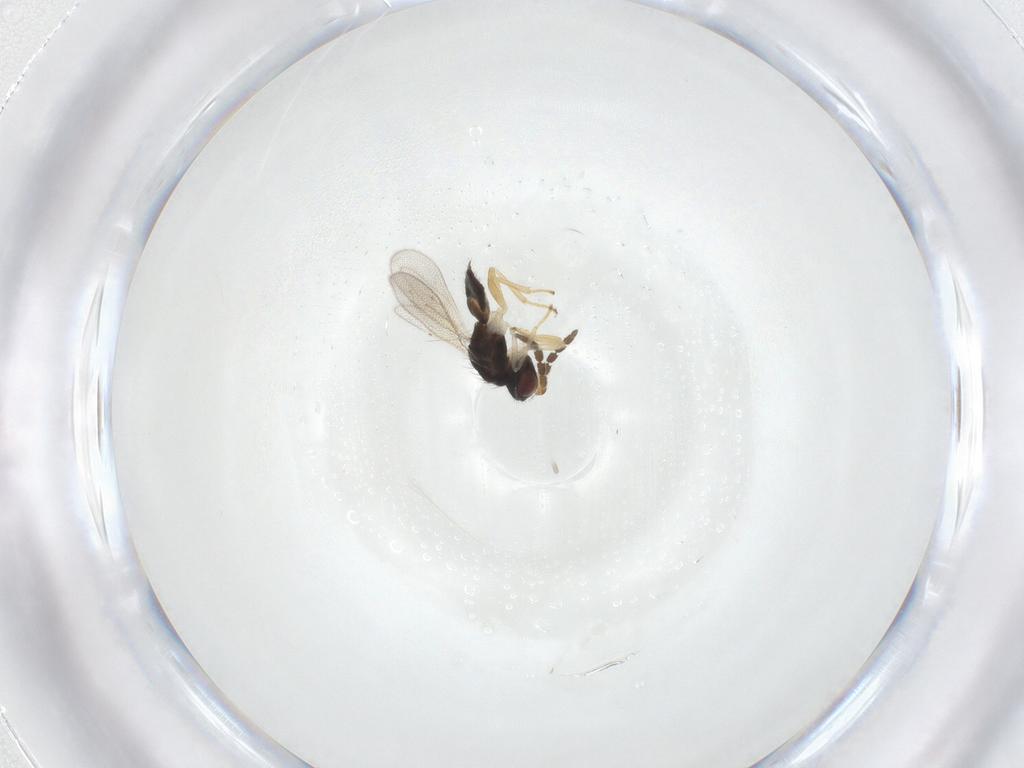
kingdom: Animalia
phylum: Arthropoda
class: Insecta
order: Hymenoptera
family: Eulophidae
